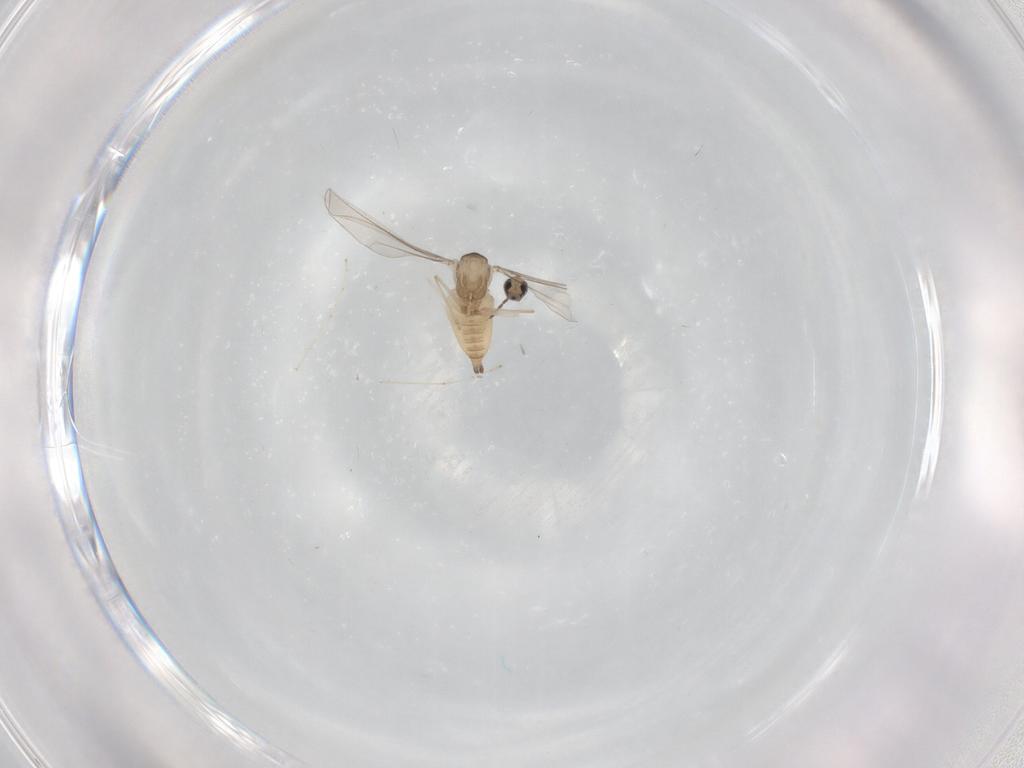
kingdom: Animalia
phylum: Arthropoda
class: Insecta
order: Diptera
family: Cecidomyiidae
